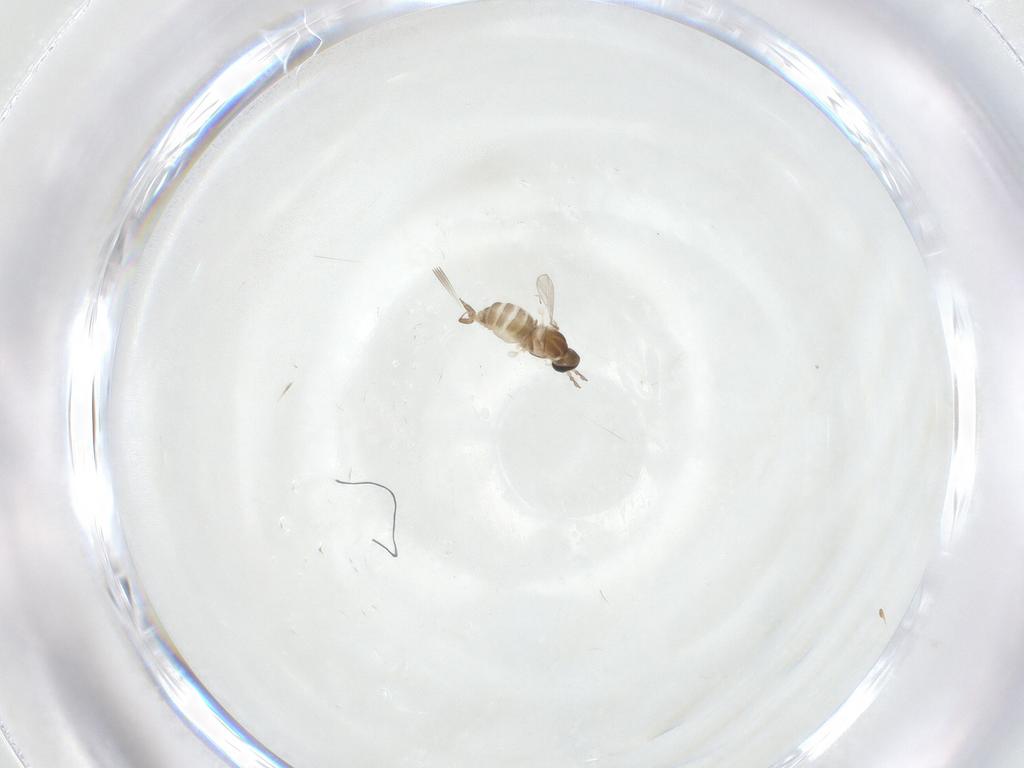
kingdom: Animalia
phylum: Arthropoda
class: Insecta
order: Diptera
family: Cecidomyiidae
